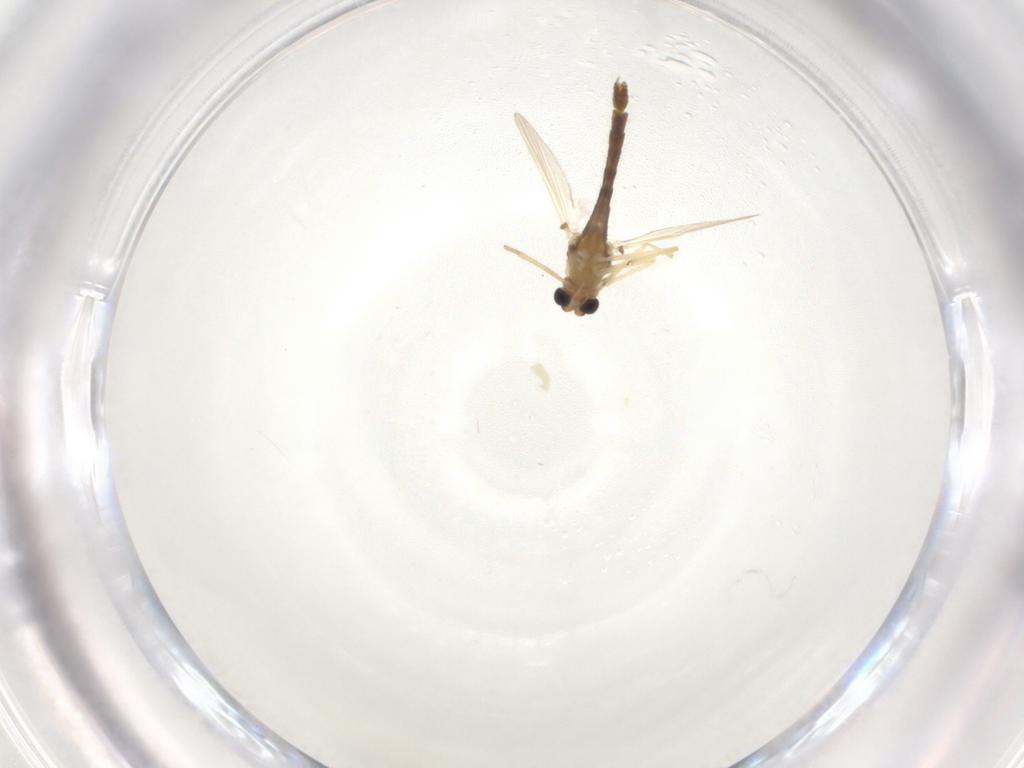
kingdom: Animalia
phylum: Arthropoda
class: Insecta
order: Diptera
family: Chironomidae
